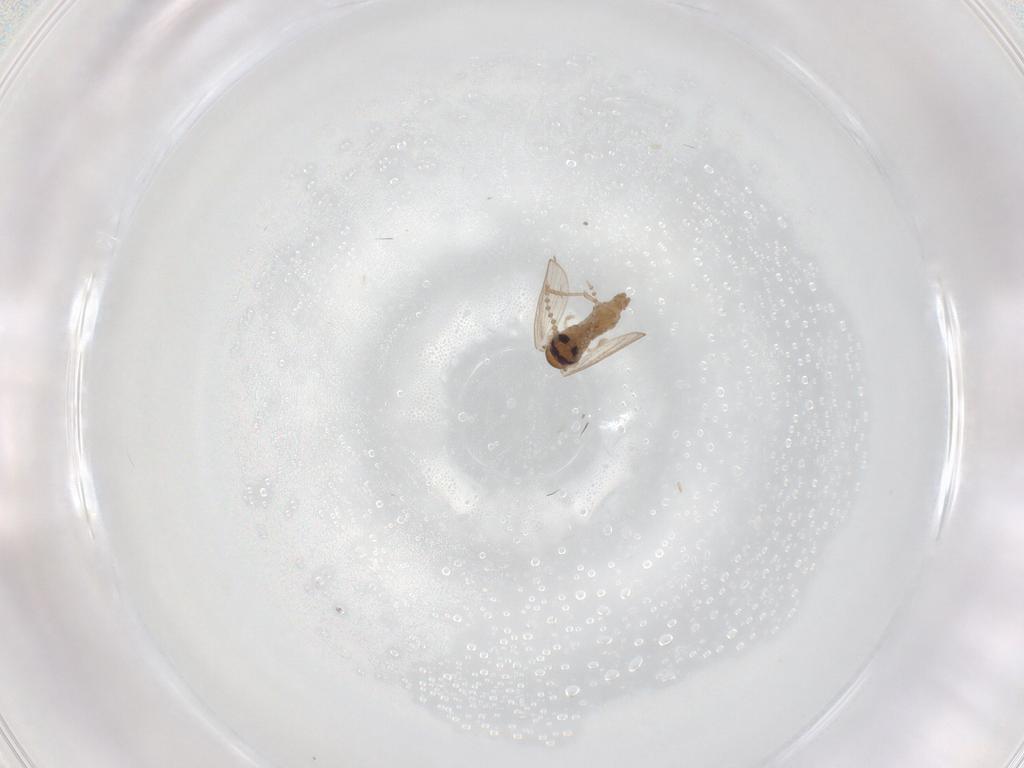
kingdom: Animalia
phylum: Arthropoda
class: Insecta
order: Diptera
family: Psychodidae
